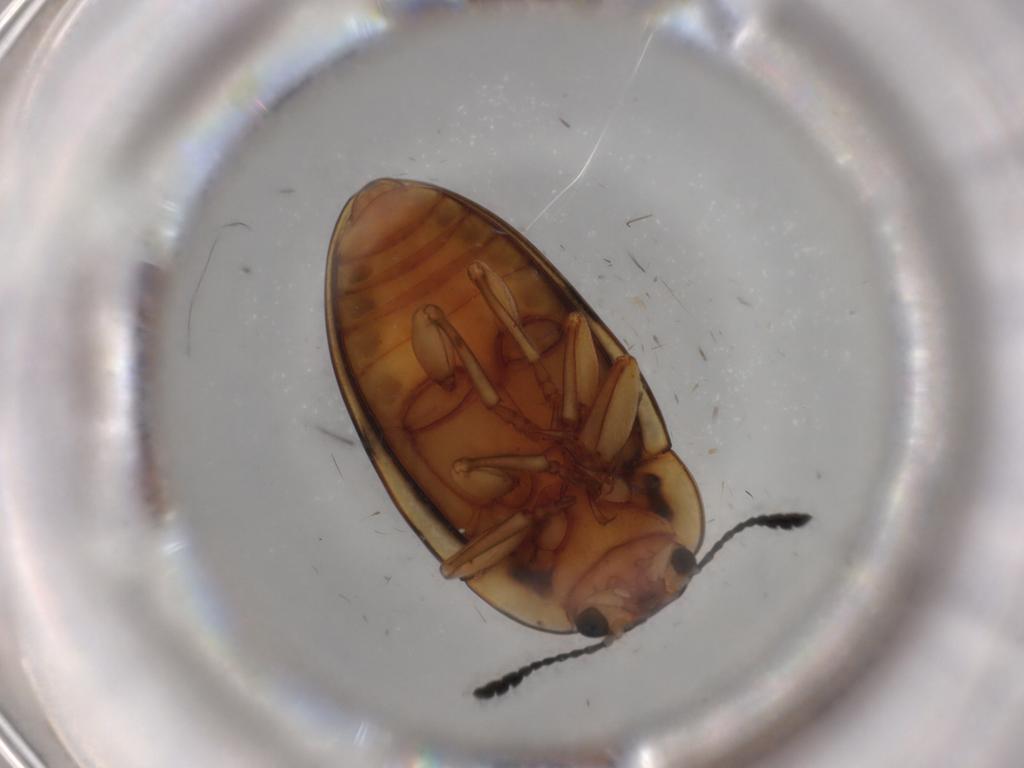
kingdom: Animalia
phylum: Arthropoda
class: Insecta
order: Coleoptera
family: Erotylidae
